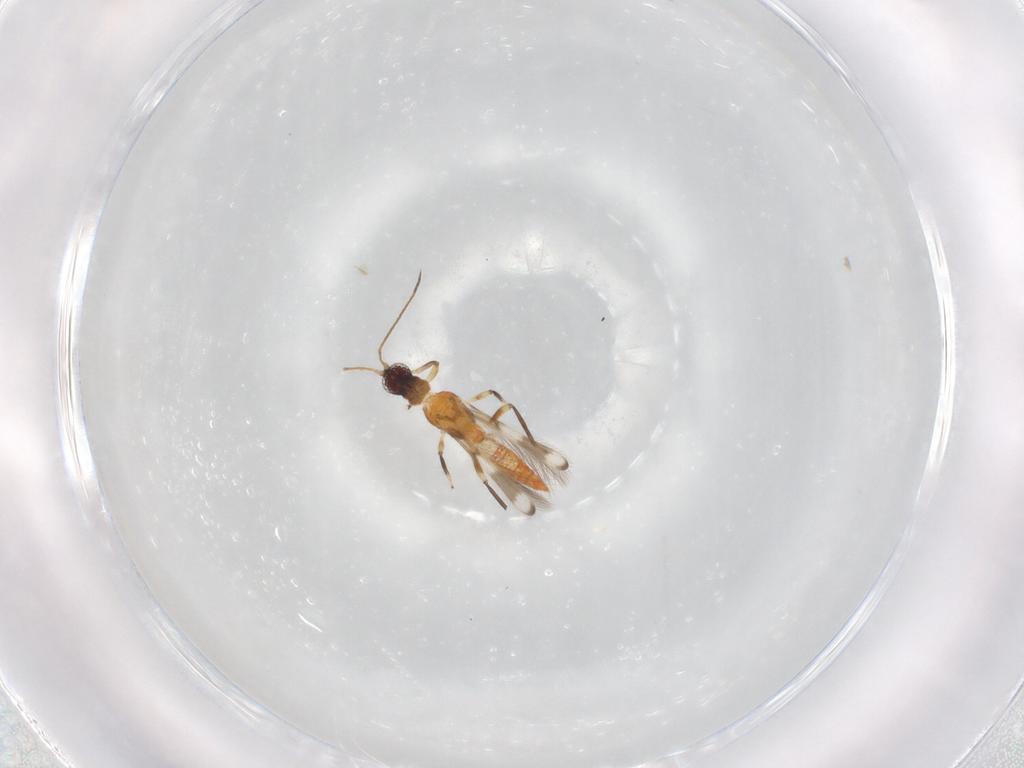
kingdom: Animalia
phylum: Arthropoda
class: Insecta
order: Thysanoptera
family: Aeolothripidae
